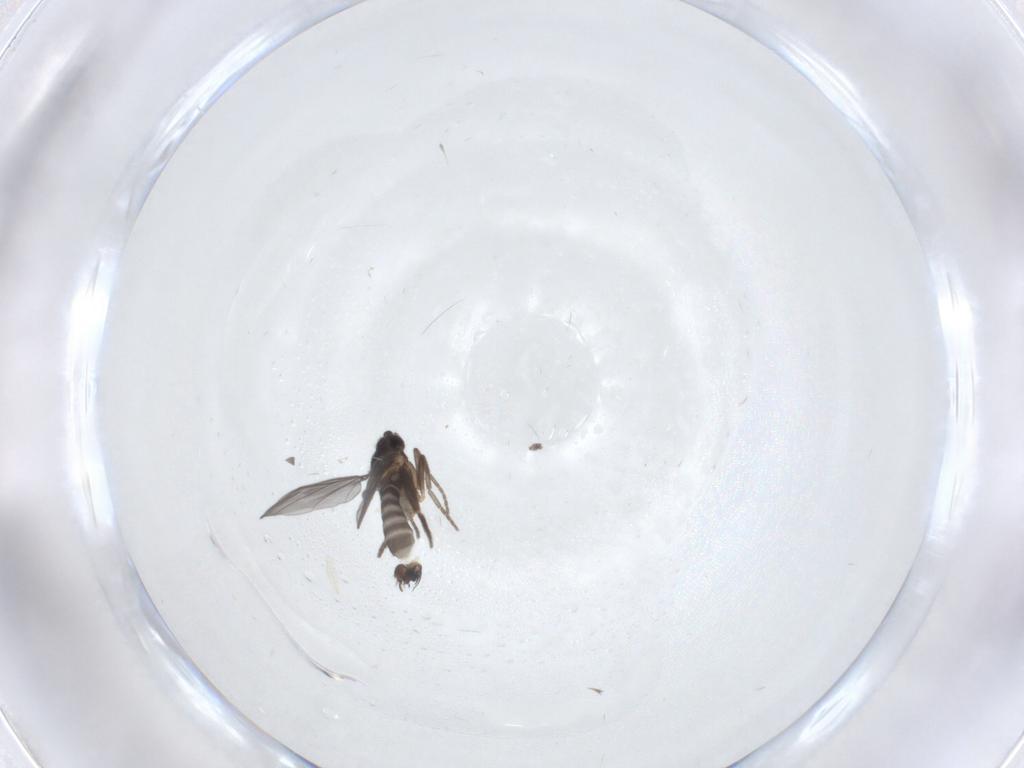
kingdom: Animalia
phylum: Arthropoda
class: Insecta
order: Diptera
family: Phoridae
